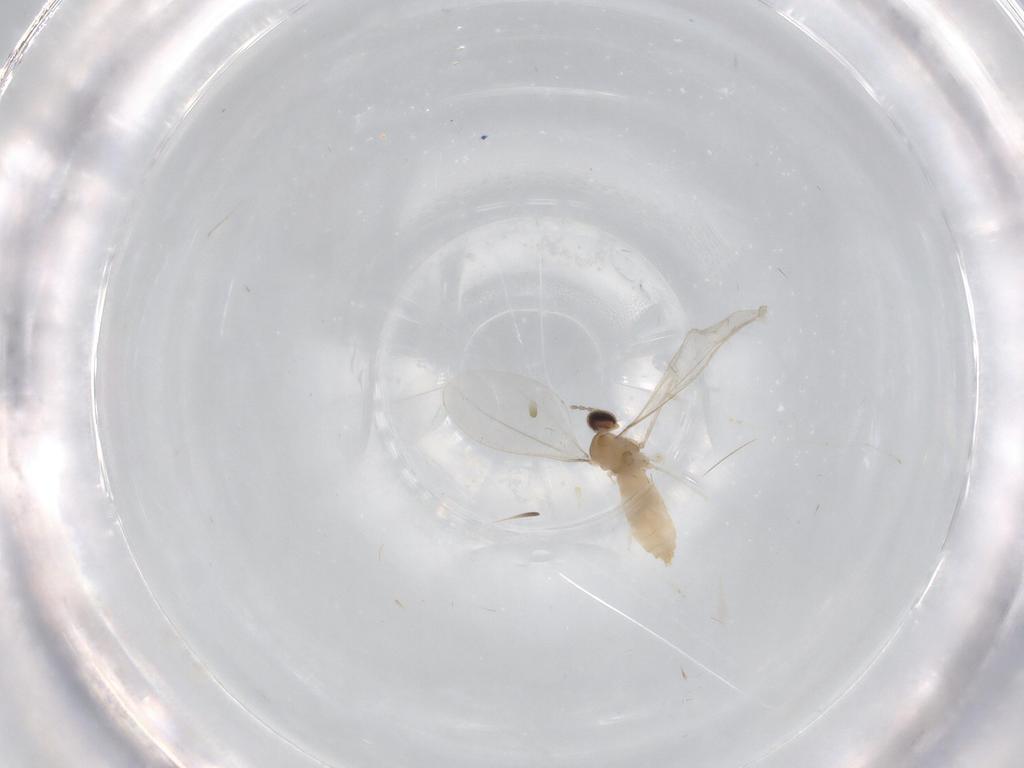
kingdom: Animalia
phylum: Arthropoda
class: Insecta
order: Diptera
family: Cecidomyiidae
